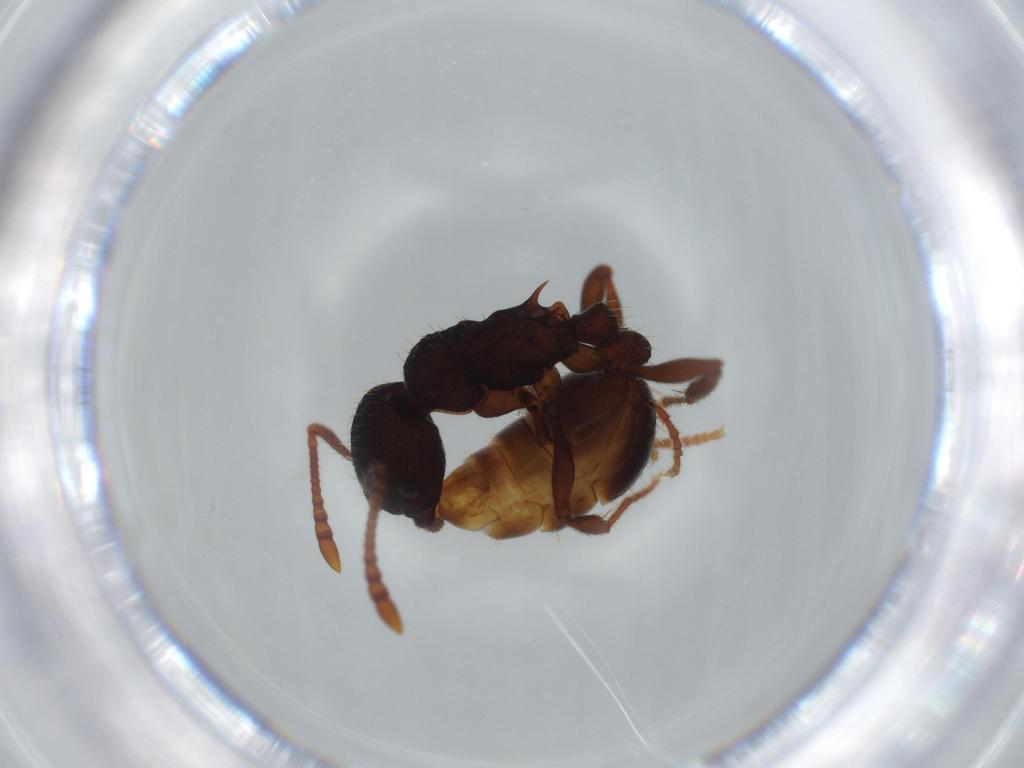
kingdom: Animalia
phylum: Arthropoda
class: Insecta
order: Hymenoptera
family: Formicidae
